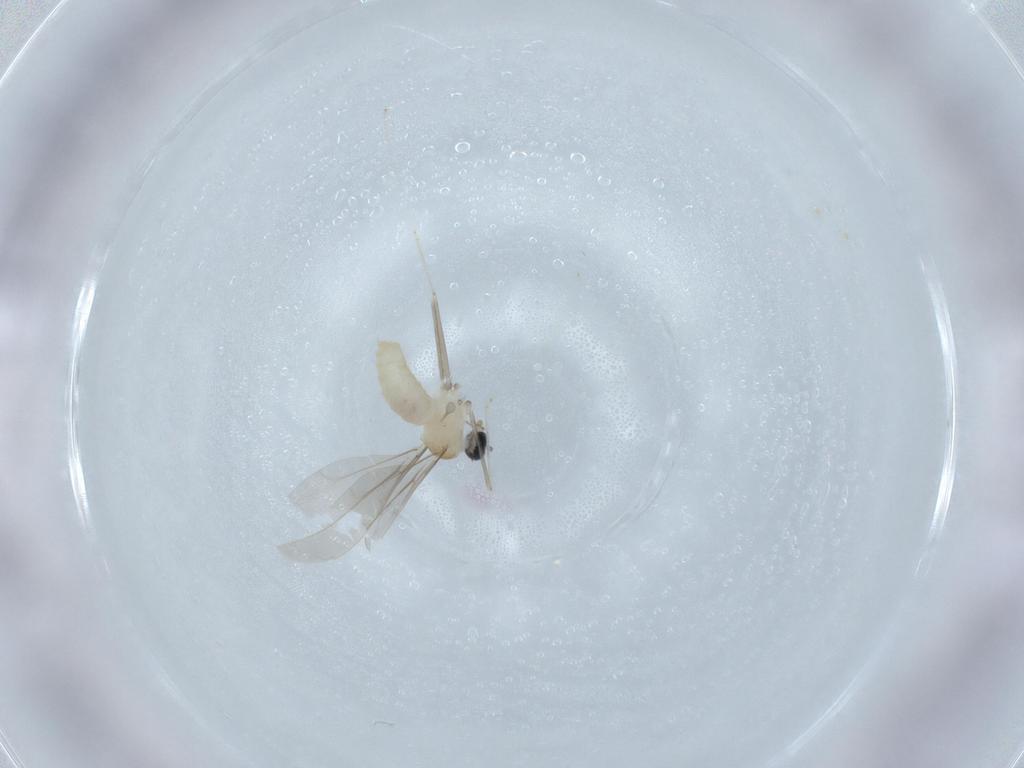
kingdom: Animalia
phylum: Arthropoda
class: Insecta
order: Diptera
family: Cecidomyiidae
